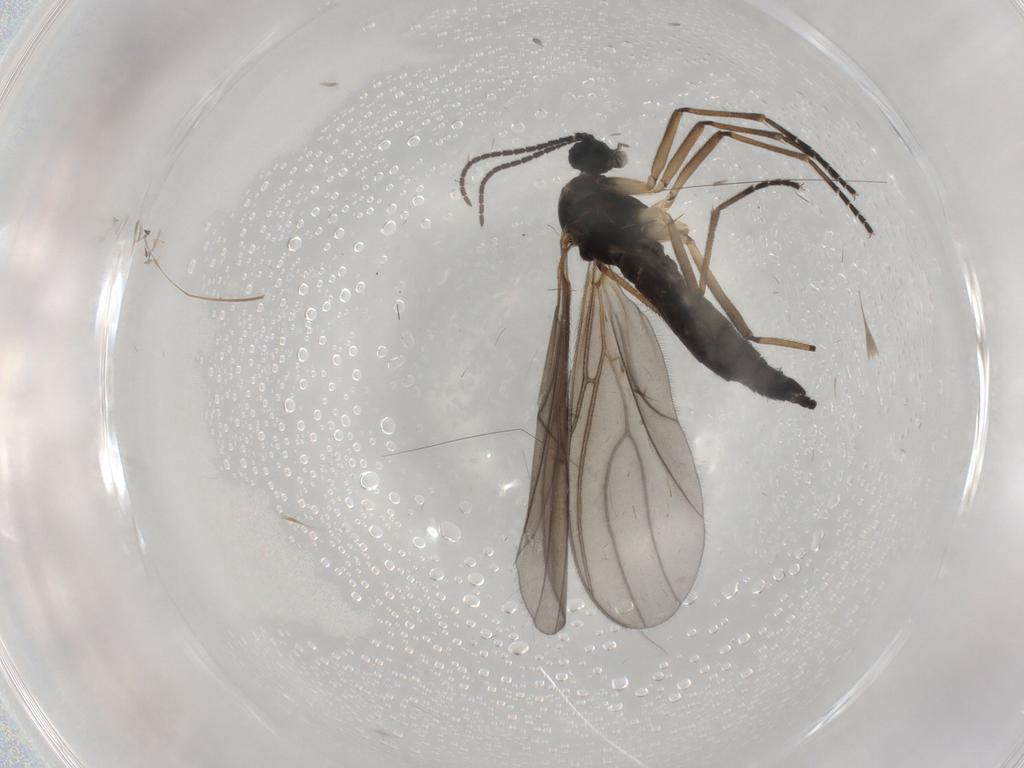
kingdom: Animalia
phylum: Arthropoda
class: Insecta
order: Diptera
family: Sciaridae
